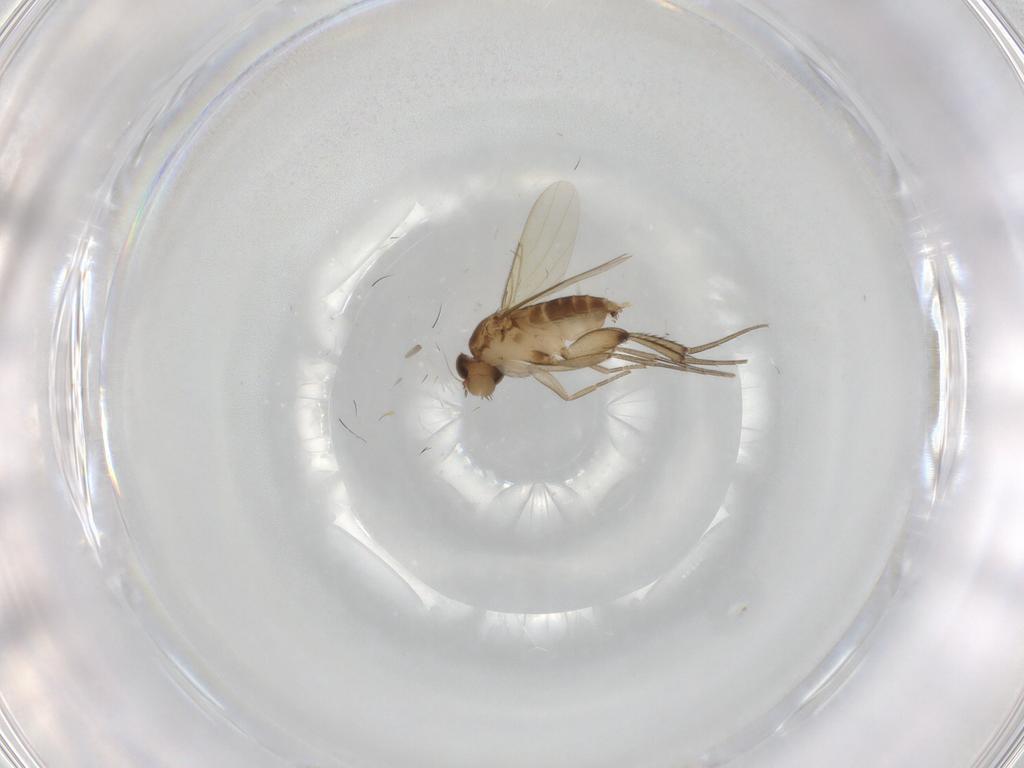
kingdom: Animalia
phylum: Arthropoda
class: Insecta
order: Diptera
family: Phoridae
